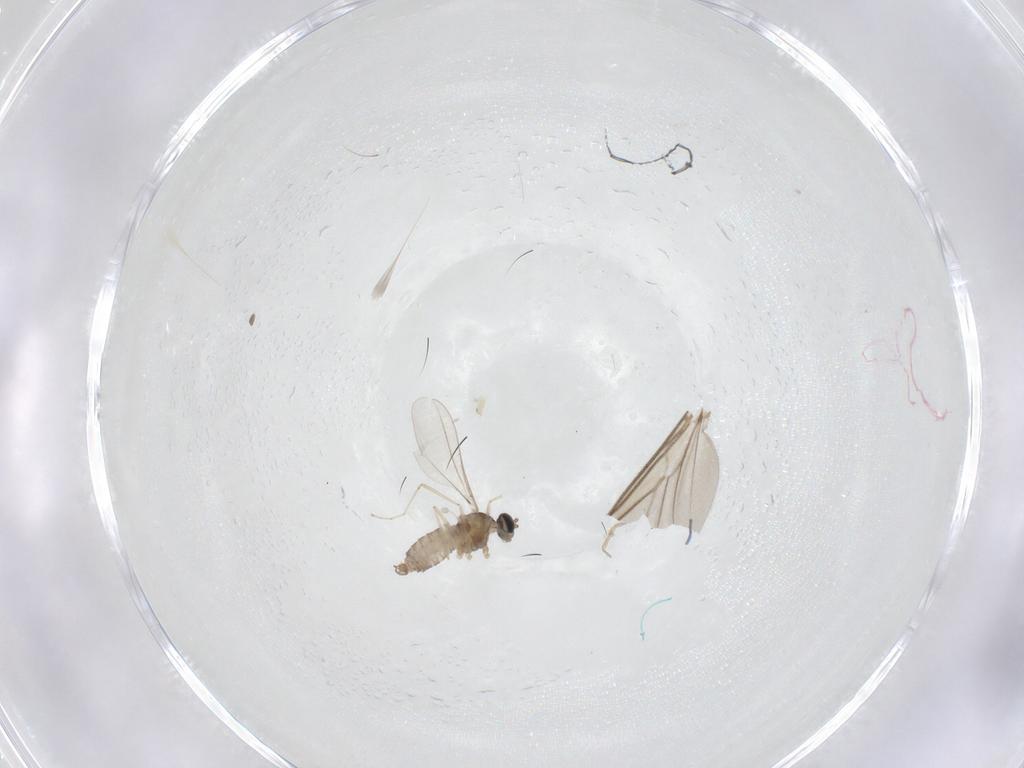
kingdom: Animalia
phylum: Arthropoda
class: Insecta
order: Diptera
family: Cecidomyiidae
